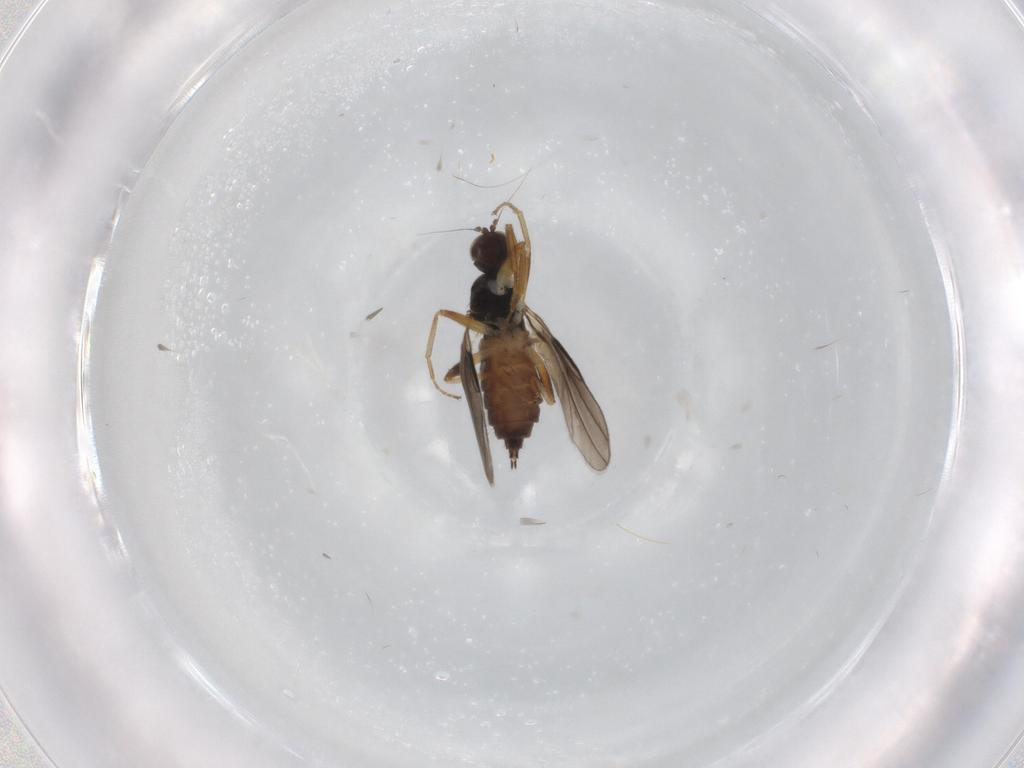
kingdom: Animalia
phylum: Arthropoda
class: Insecta
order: Diptera
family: Hybotidae
